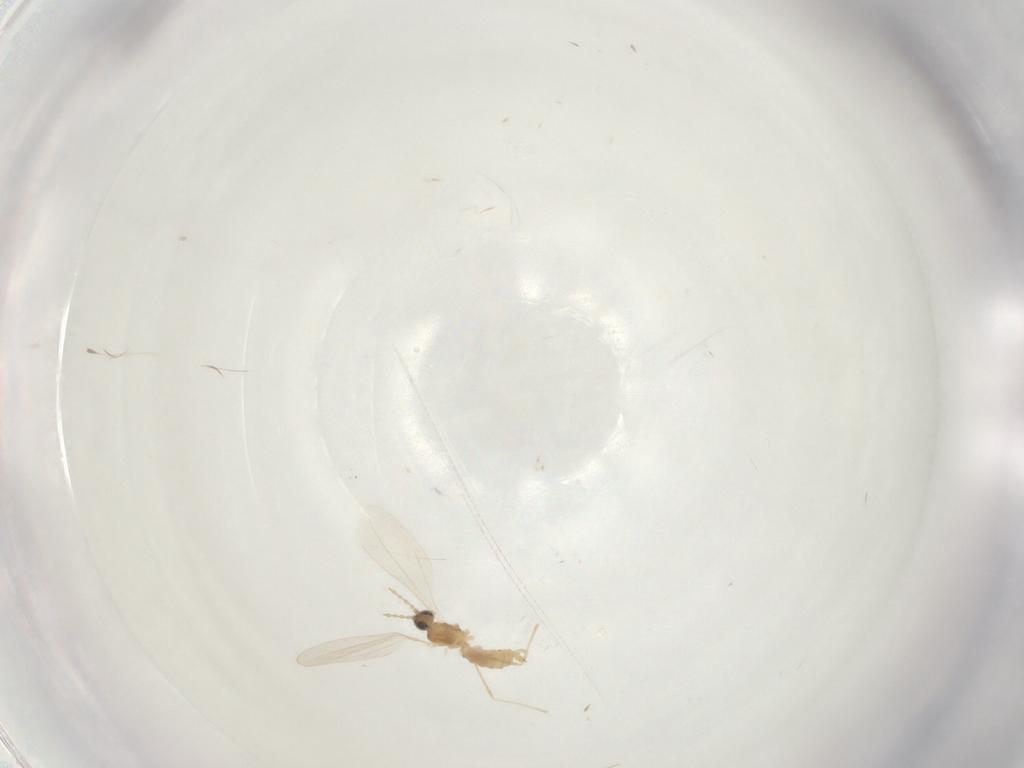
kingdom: Animalia
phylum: Arthropoda
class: Insecta
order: Diptera
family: Cecidomyiidae
